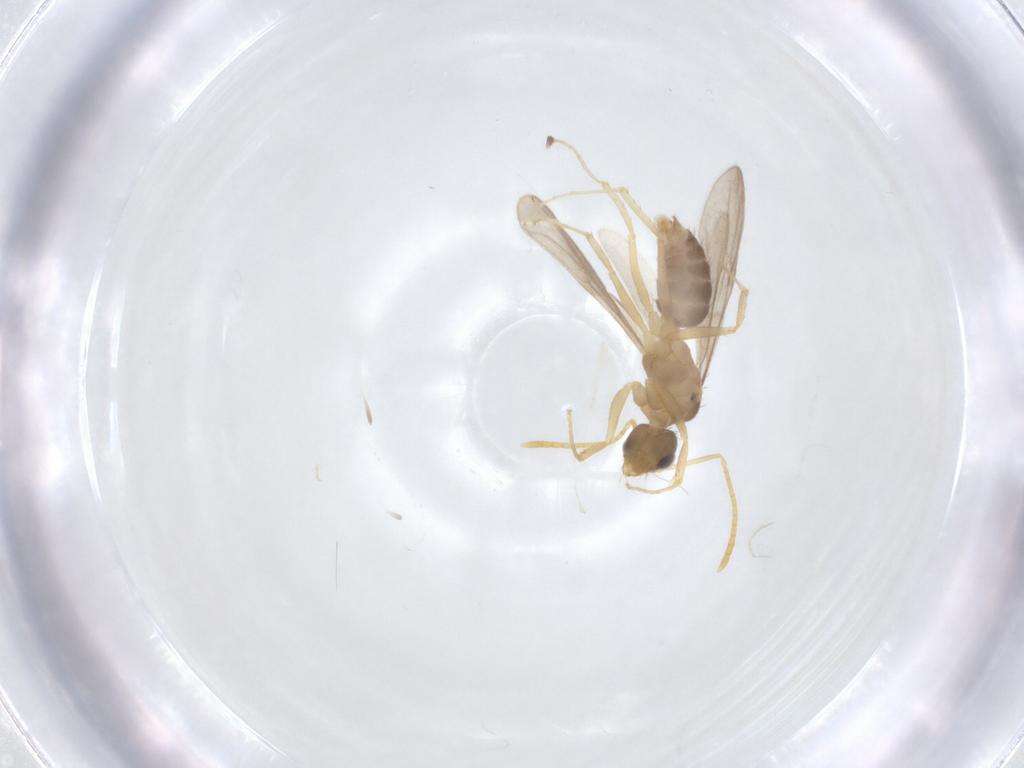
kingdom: Animalia
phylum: Arthropoda
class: Insecta
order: Hymenoptera
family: Formicidae
